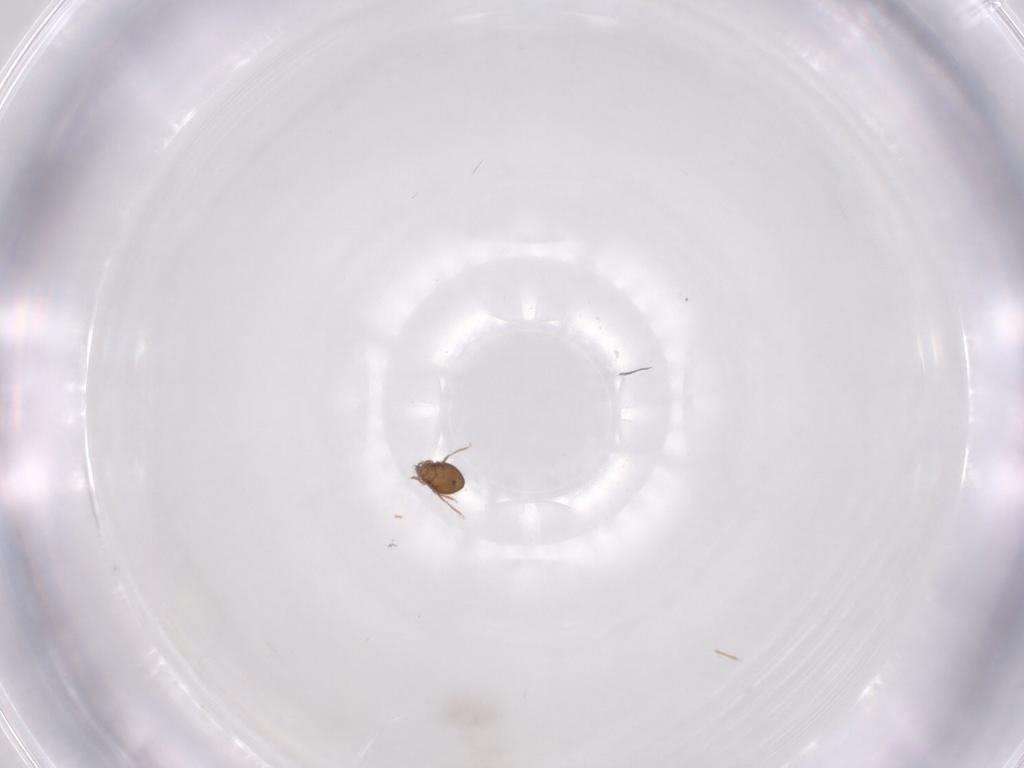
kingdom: Animalia
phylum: Arthropoda
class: Arachnida
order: Sarcoptiformes
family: Oribatulidae
